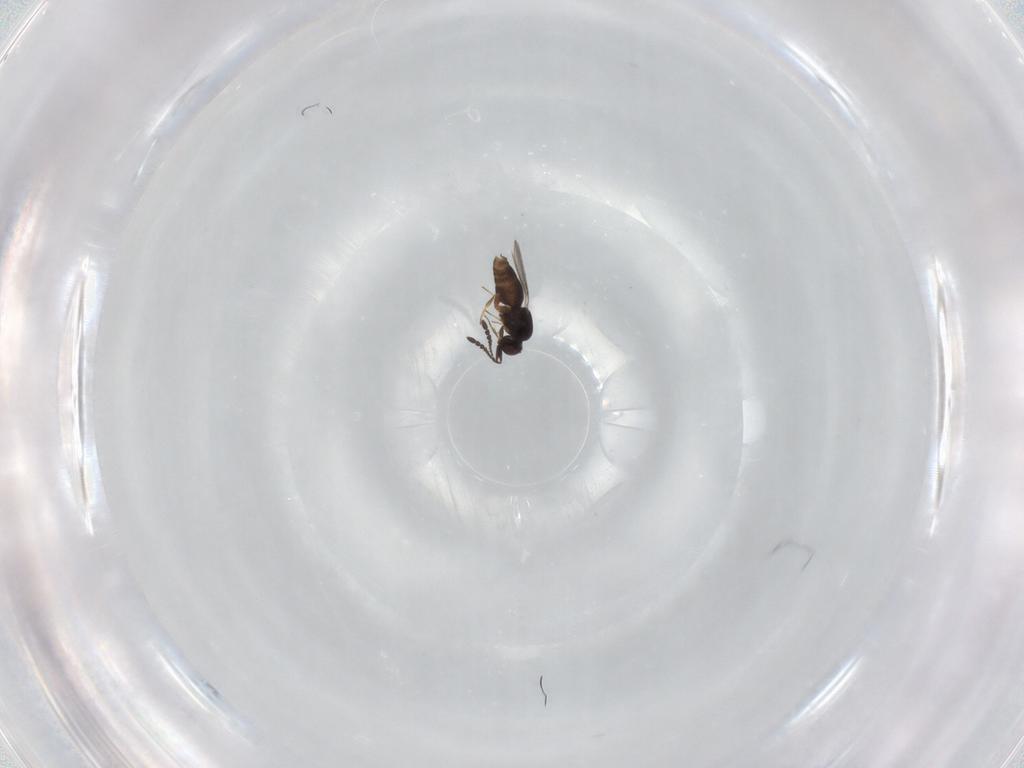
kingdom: Animalia
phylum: Arthropoda
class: Insecta
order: Hymenoptera
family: Ceraphronidae
